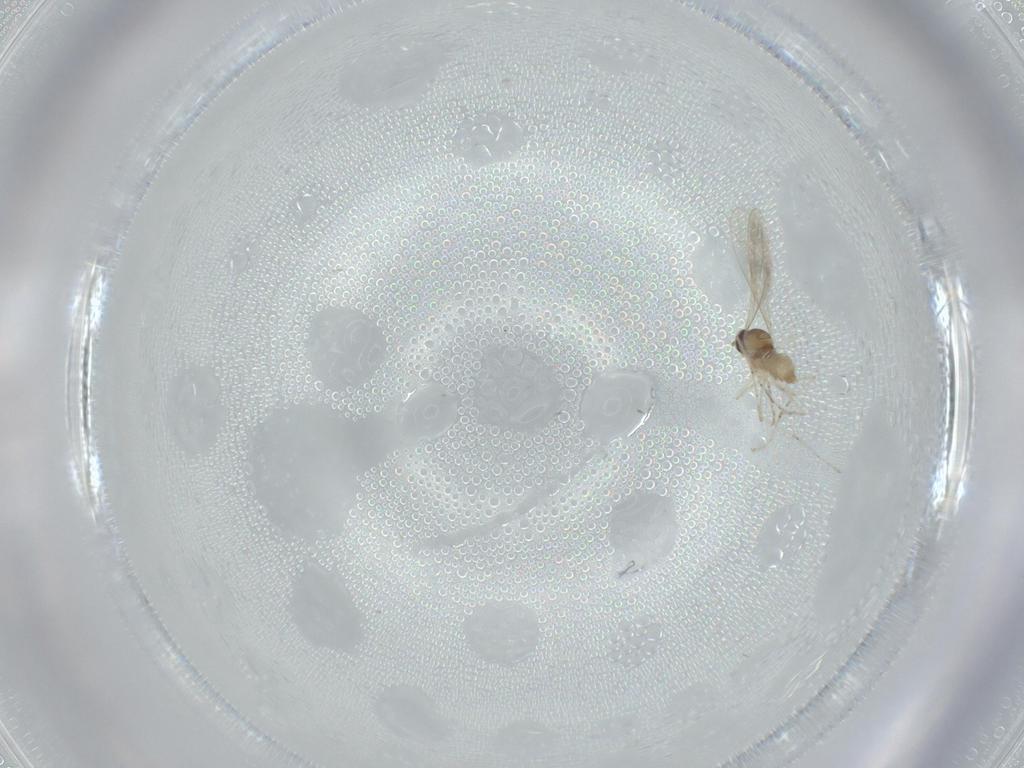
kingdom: Animalia
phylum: Arthropoda
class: Insecta
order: Diptera
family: Cecidomyiidae
